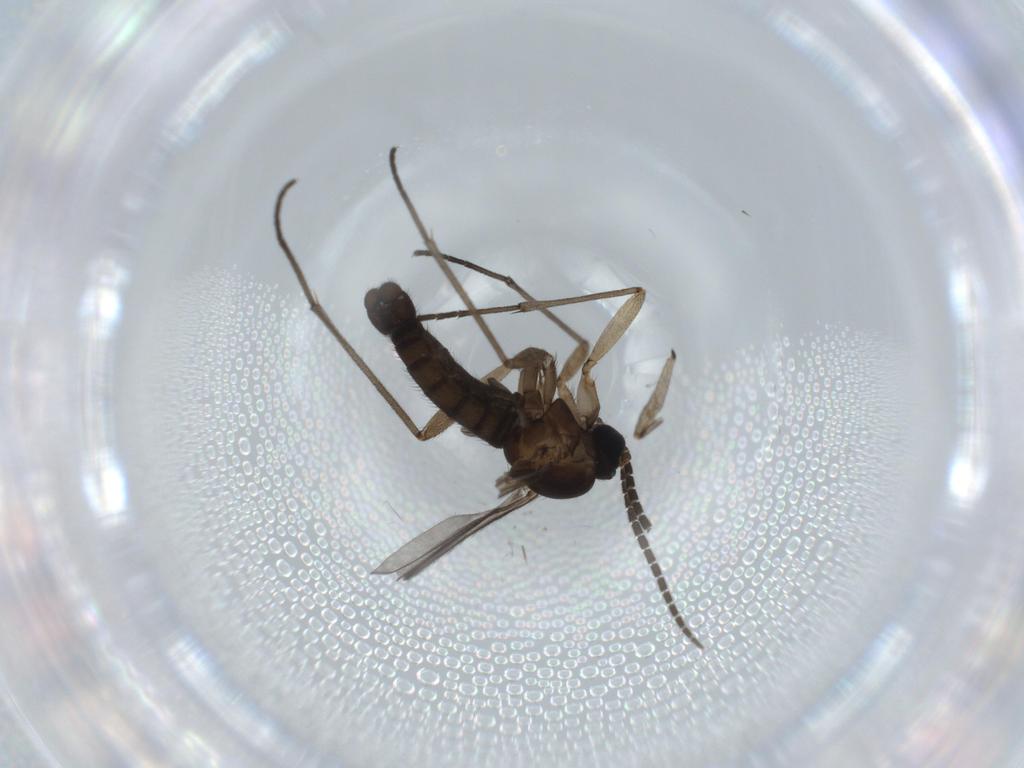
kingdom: Animalia
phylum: Arthropoda
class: Insecta
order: Diptera
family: Sciaridae
